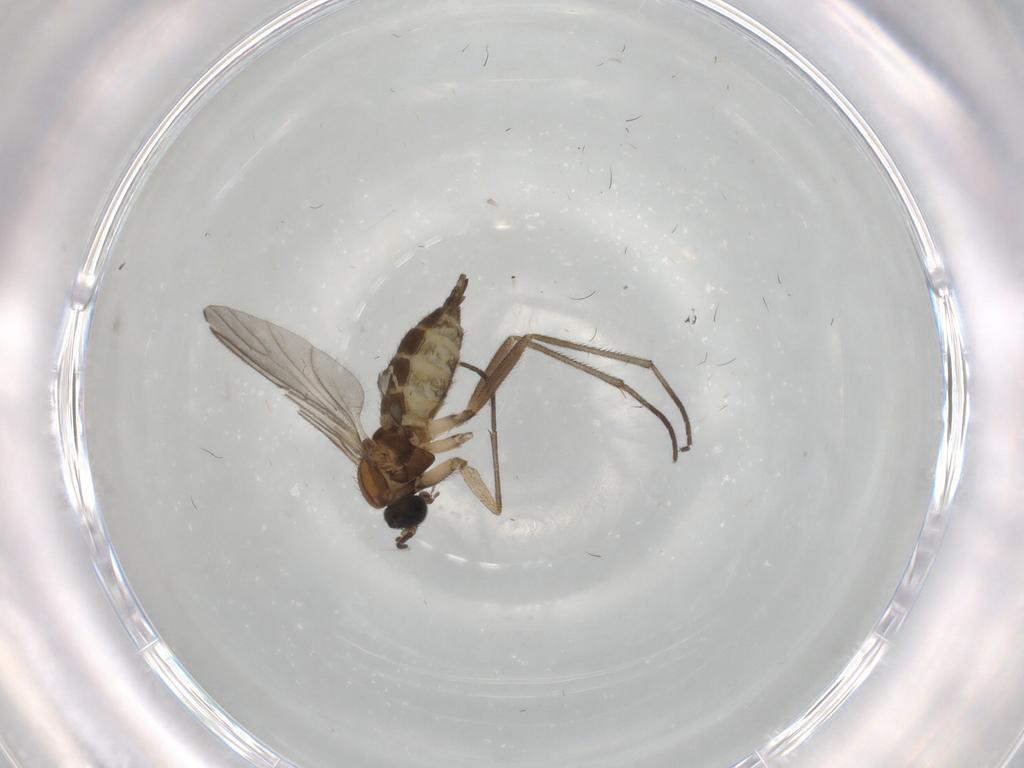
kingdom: Animalia
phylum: Arthropoda
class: Insecta
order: Diptera
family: Sciaridae
